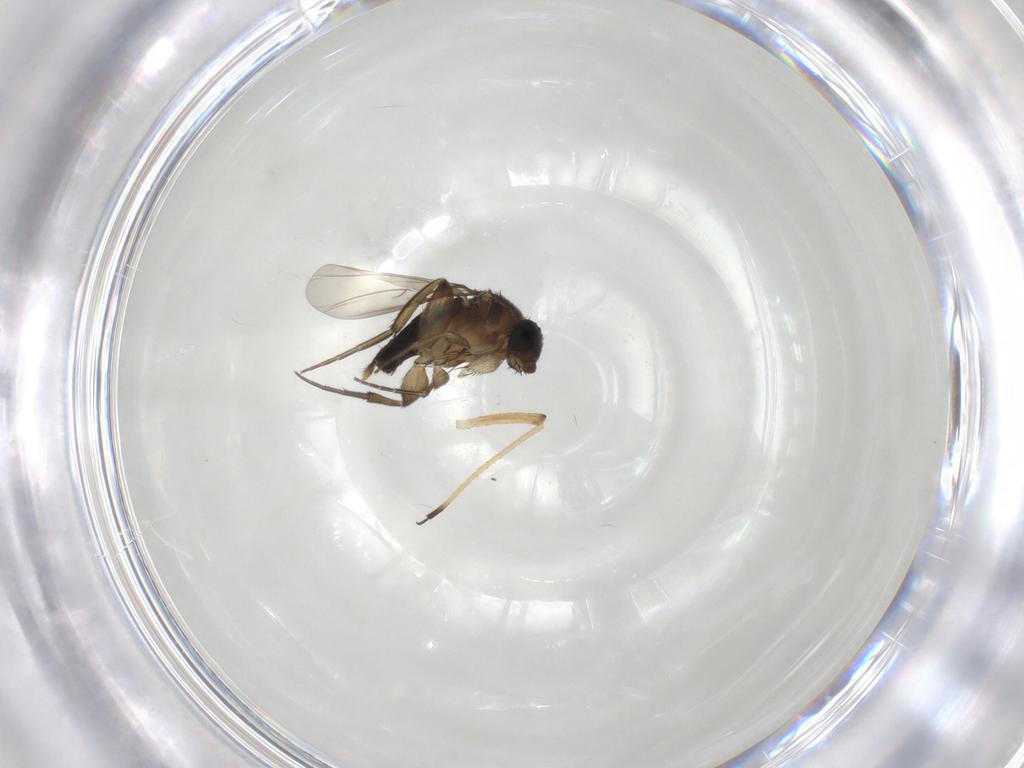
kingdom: Animalia
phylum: Arthropoda
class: Insecta
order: Diptera
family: Phoridae
